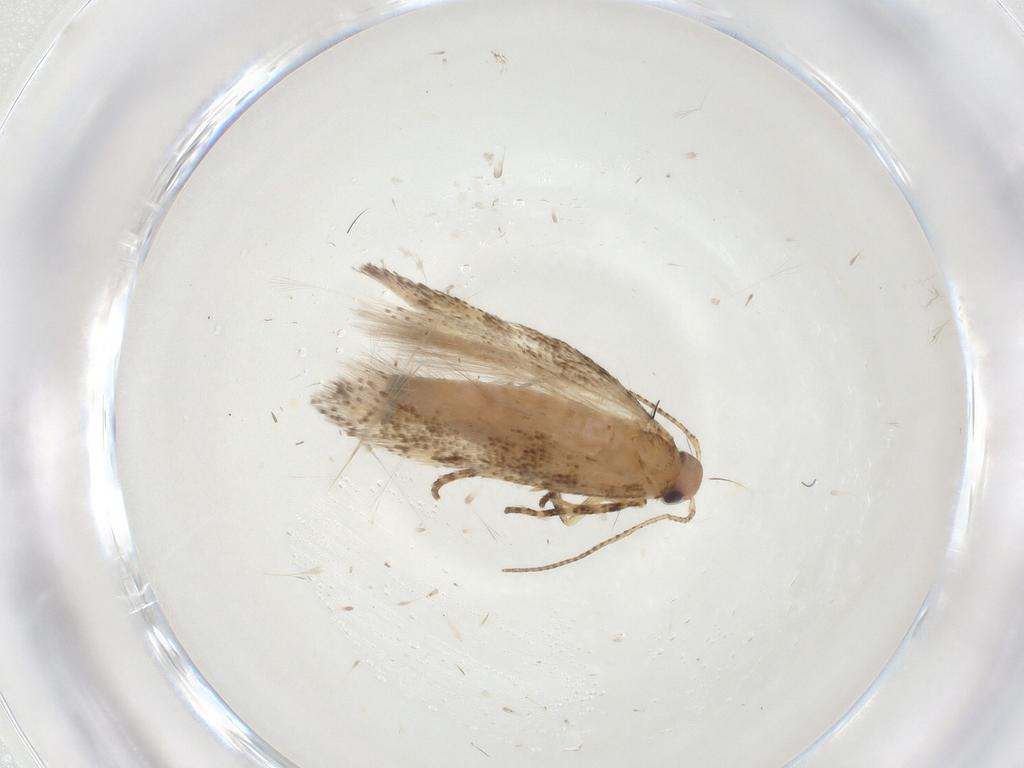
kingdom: Animalia
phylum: Arthropoda
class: Insecta
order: Lepidoptera
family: Gelechiidae
